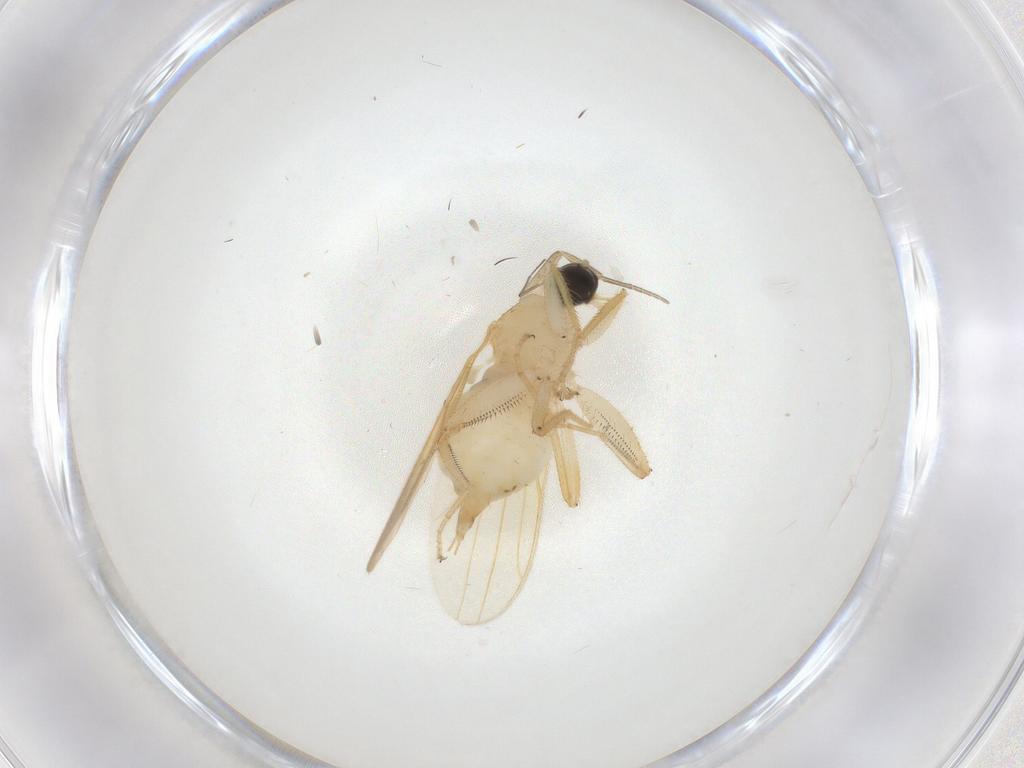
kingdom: Animalia
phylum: Arthropoda
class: Insecta
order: Diptera
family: Hybotidae
